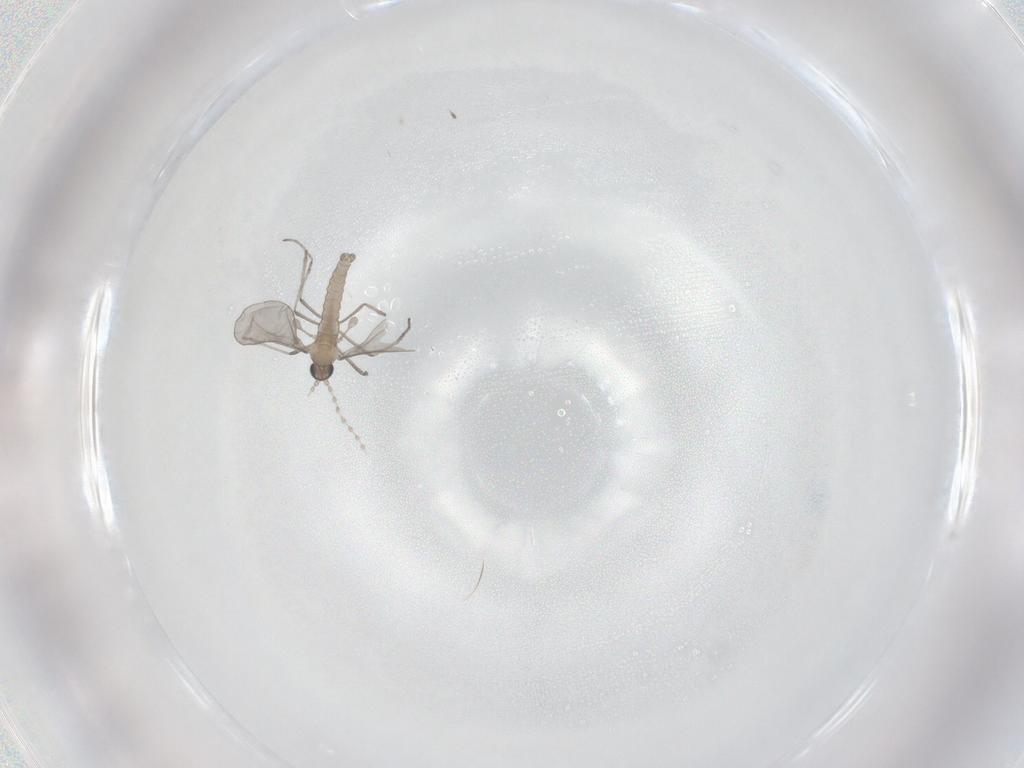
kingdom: Animalia
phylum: Arthropoda
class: Insecta
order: Diptera
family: Cecidomyiidae
